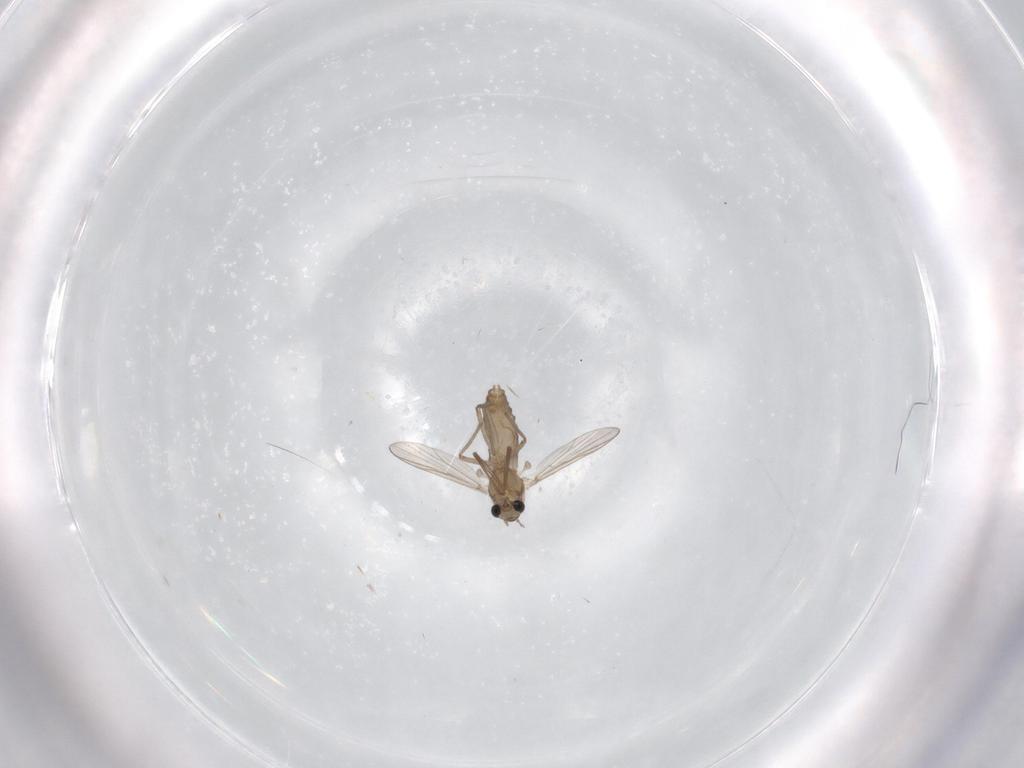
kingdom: Animalia
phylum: Arthropoda
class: Insecta
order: Diptera
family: Chironomidae
